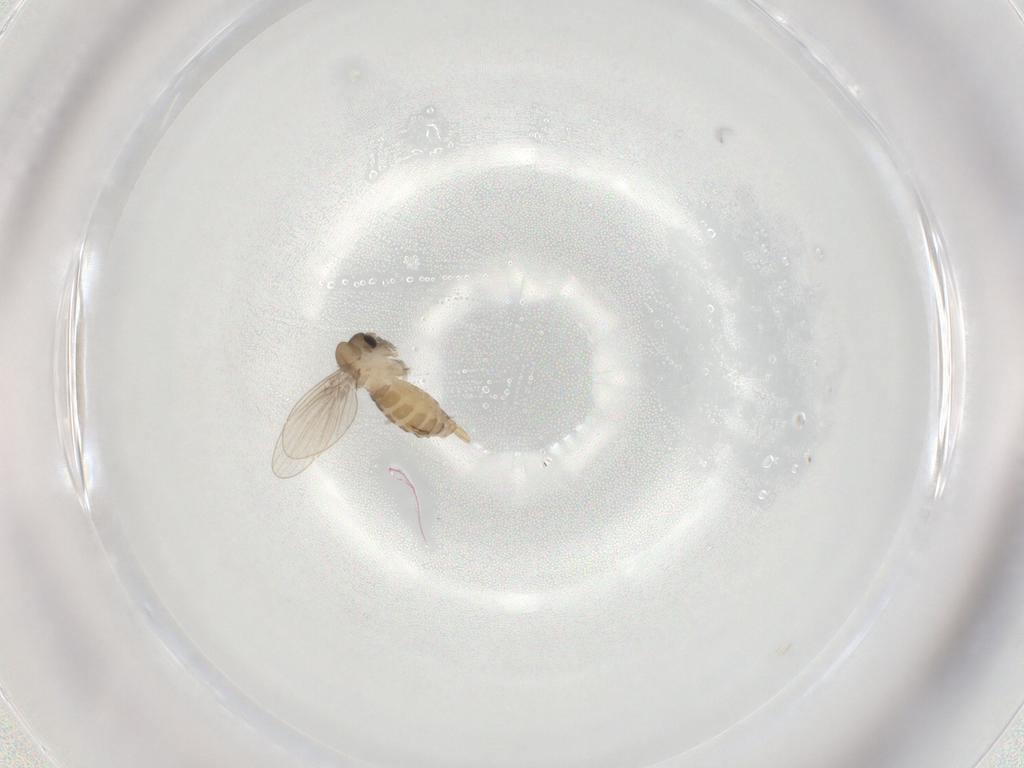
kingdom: Animalia
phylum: Arthropoda
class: Insecta
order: Diptera
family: Psychodidae
